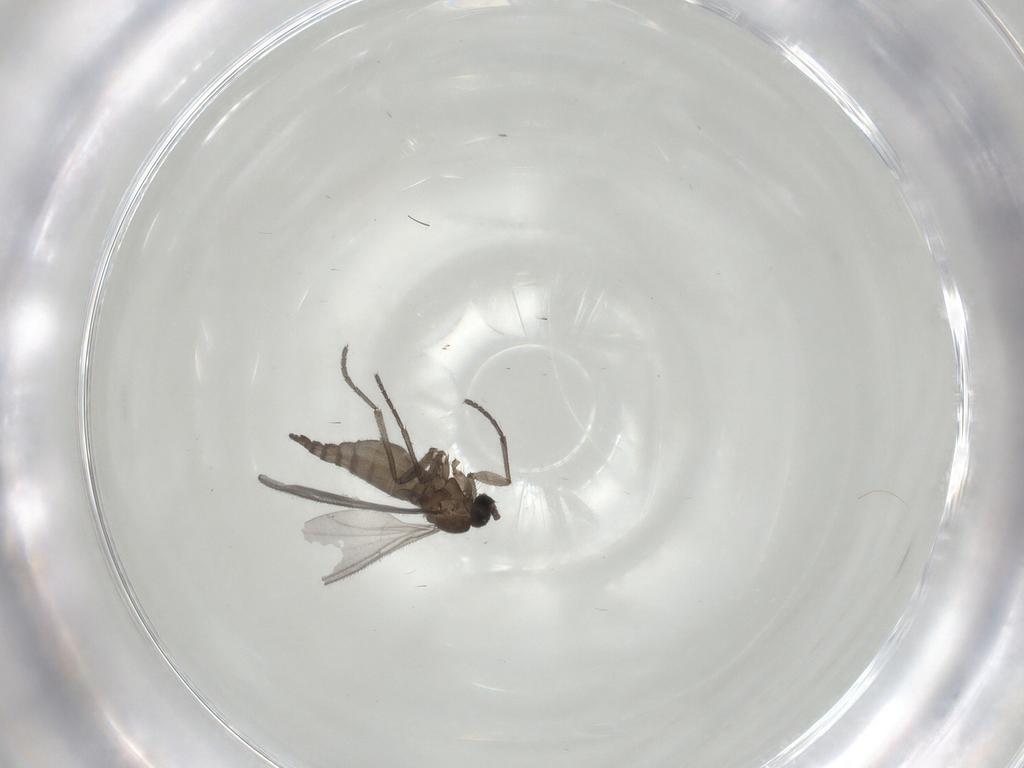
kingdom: Animalia
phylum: Arthropoda
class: Insecta
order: Diptera
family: Sciaridae
